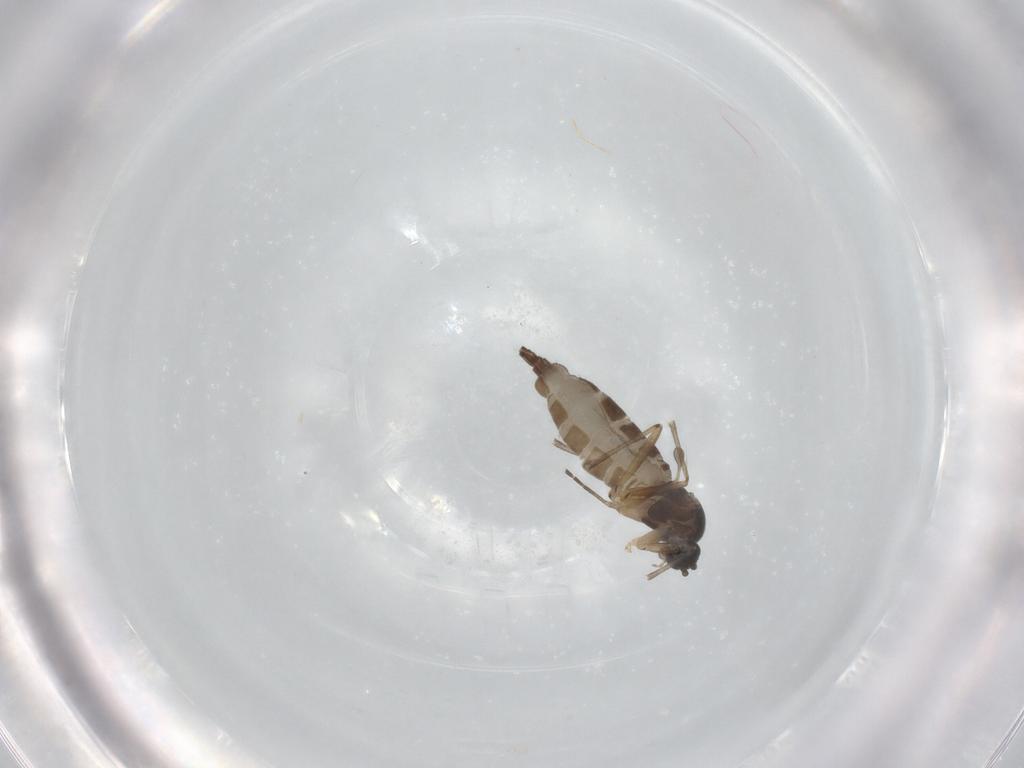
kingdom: Animalia
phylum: Arthropoda
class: Insecta
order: Diptera
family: Sciaridae
